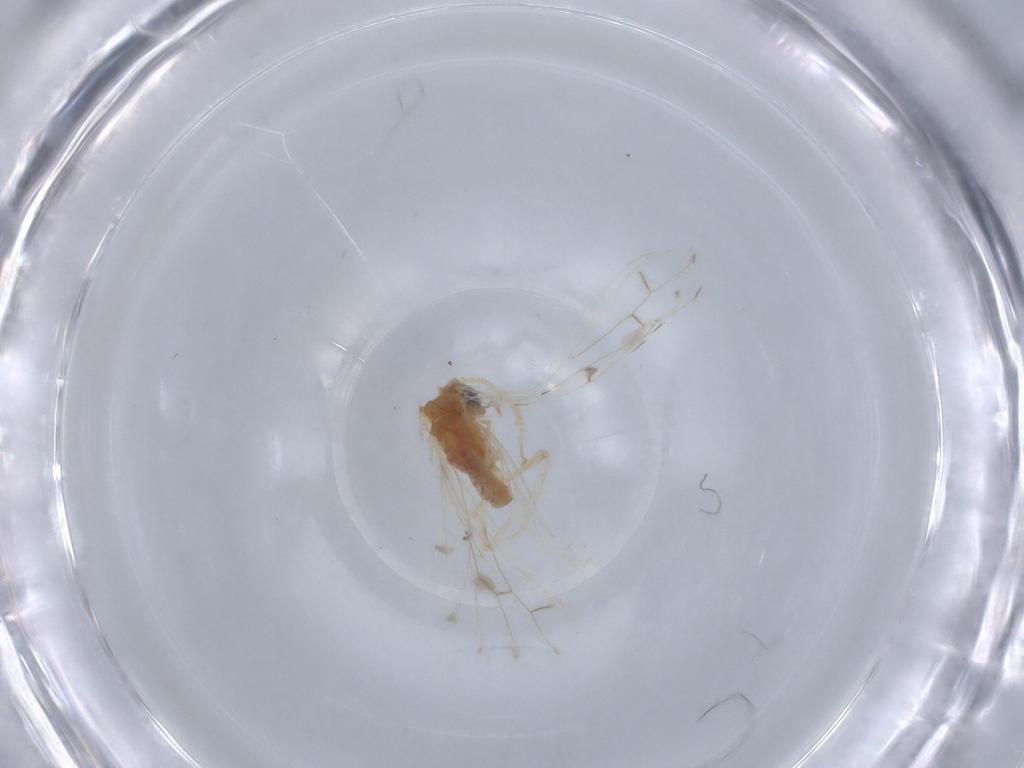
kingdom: Animalia
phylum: Arthropoda
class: Insecta
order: Neuroptera
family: Coniopterygidae
